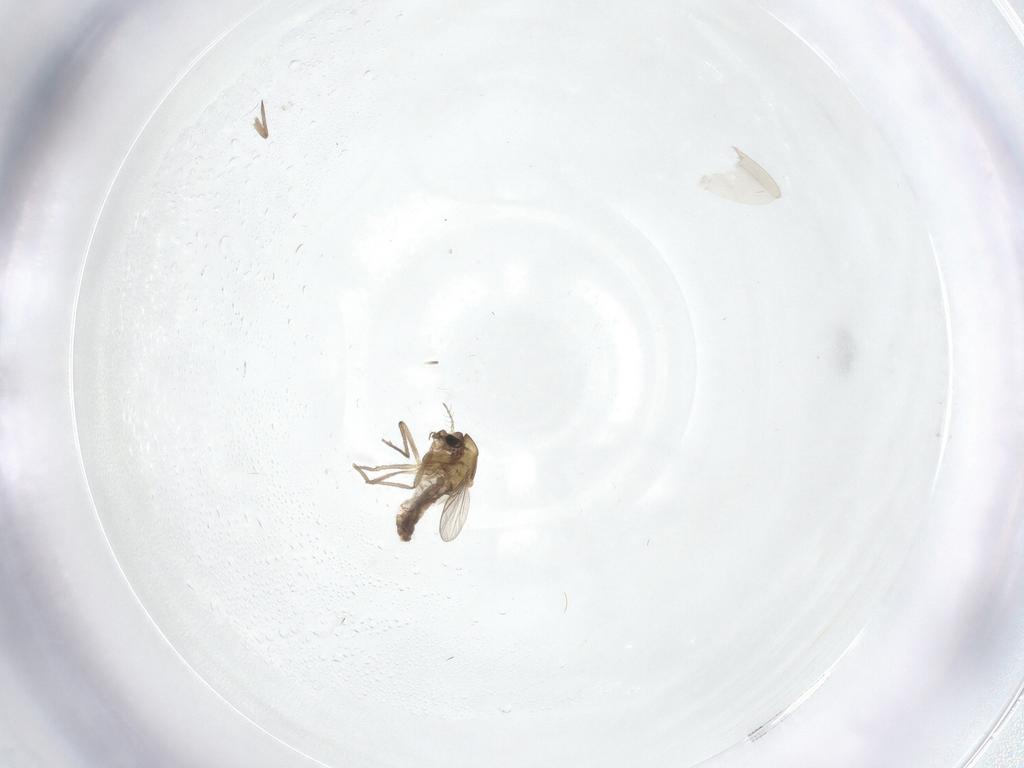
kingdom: Animalia
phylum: Arthropoda
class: Insecta
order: Diptera
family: Chironomidae
